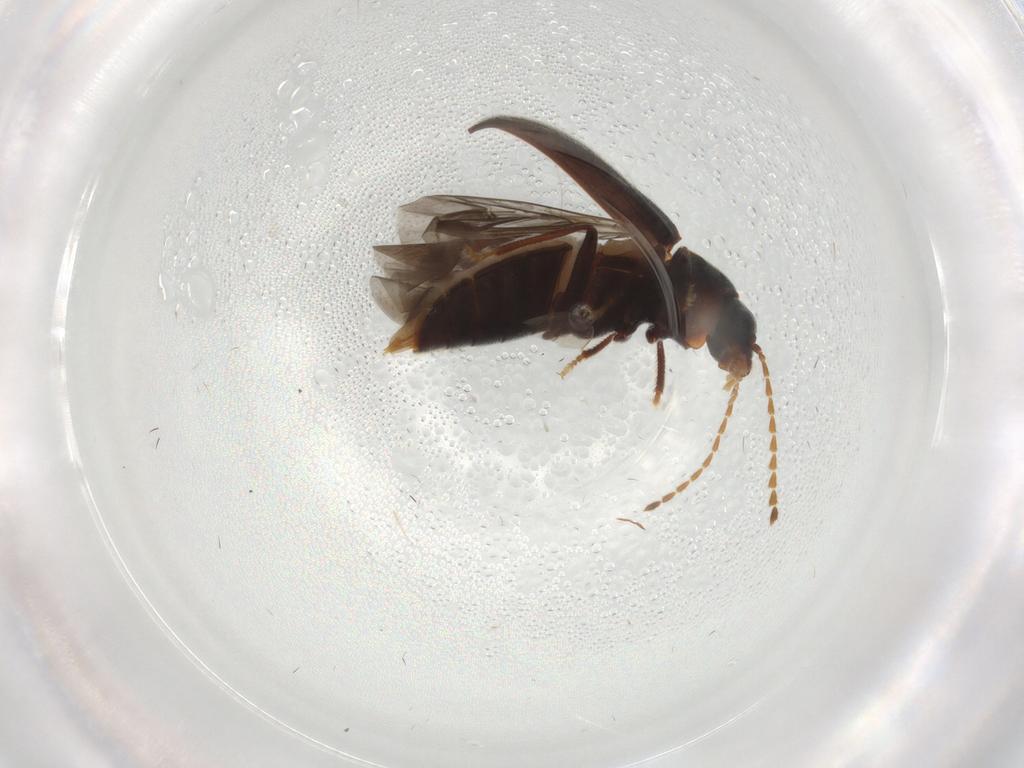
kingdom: Animalia
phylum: Arthropoda
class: Insecta
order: Coleoptera
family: Ptilodactylidae
